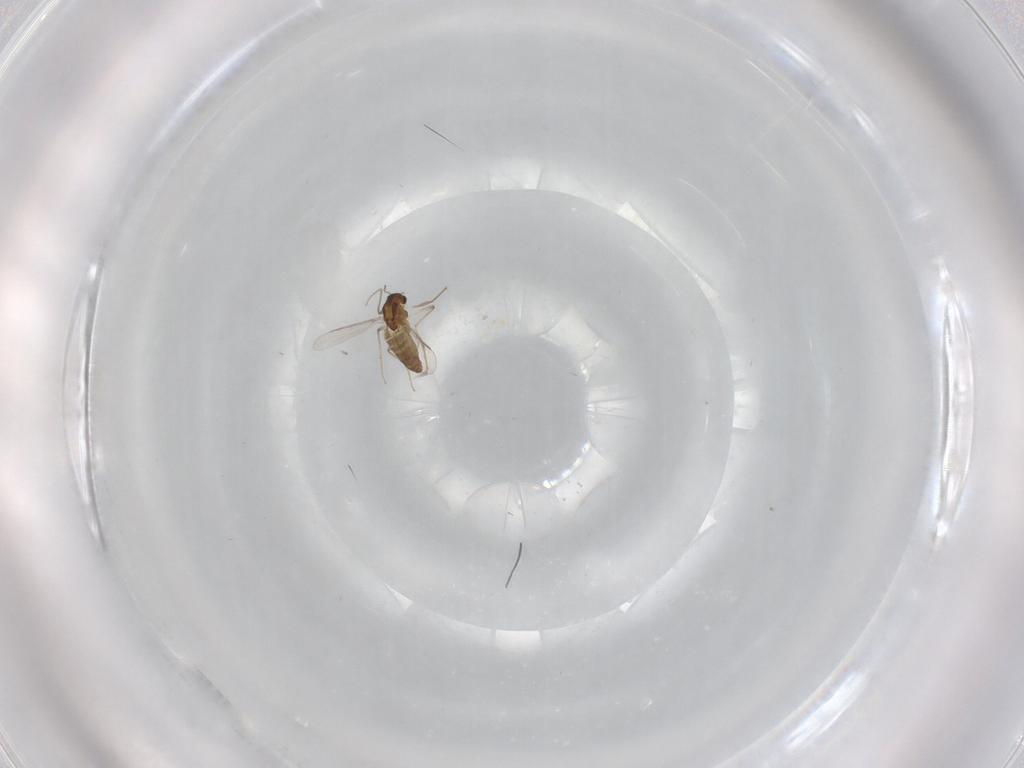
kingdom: Animalia
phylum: Arthropoda
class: Insecta
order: Diptera
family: Chironomidae
